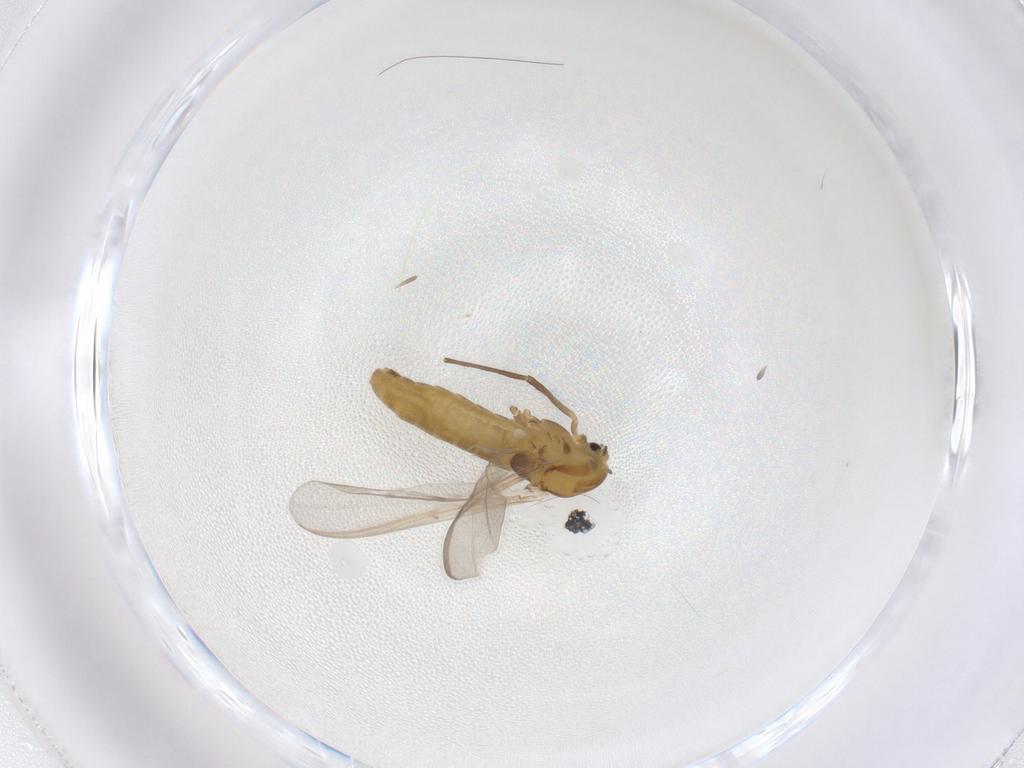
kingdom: Animalia
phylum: Arthropoda
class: Insecta
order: Diptera
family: Chironomidae
